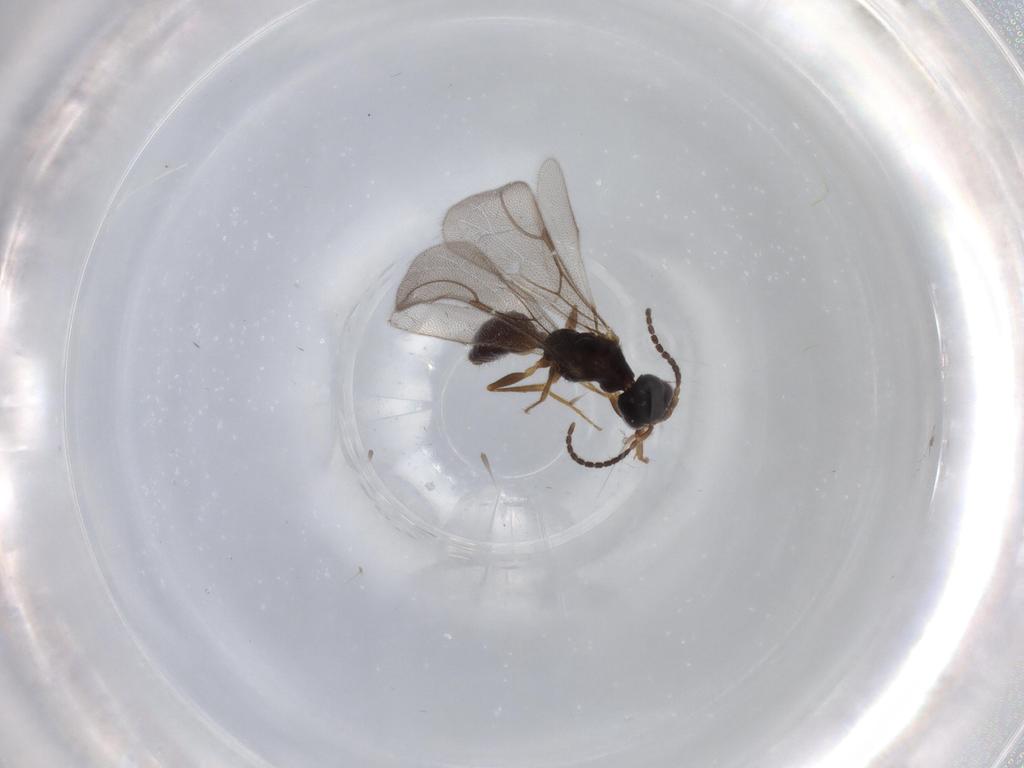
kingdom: Animalia
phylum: Arthropoda
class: Insecta
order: Hymenoptera
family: Bethylidae
